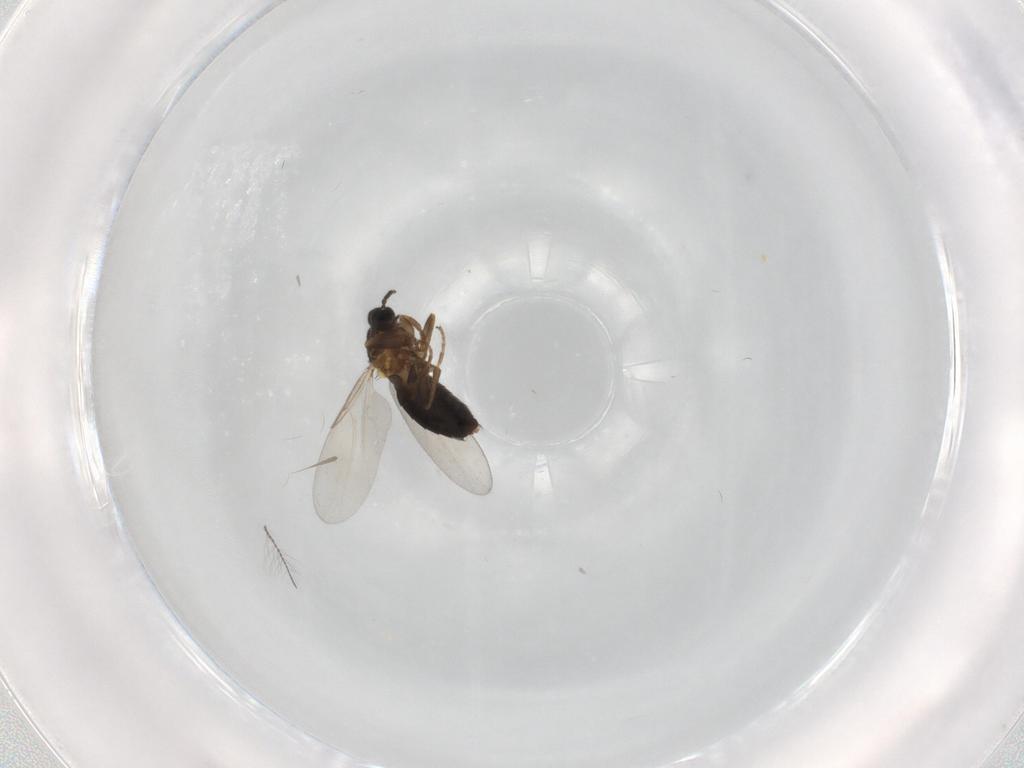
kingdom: Animalia
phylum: Arthropoda
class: Insecta
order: Diptera
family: Scatopsidae
